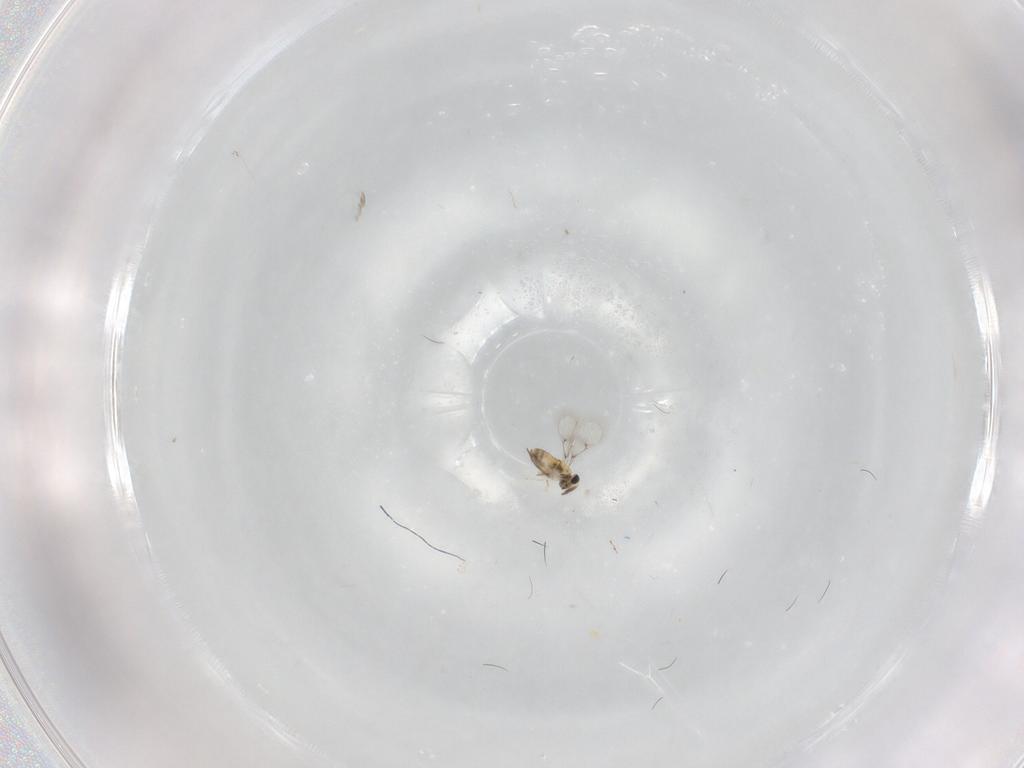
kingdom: Animalia
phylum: Arthropoda
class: Insecta
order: Hymenoptera
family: Trichogrammatidae
